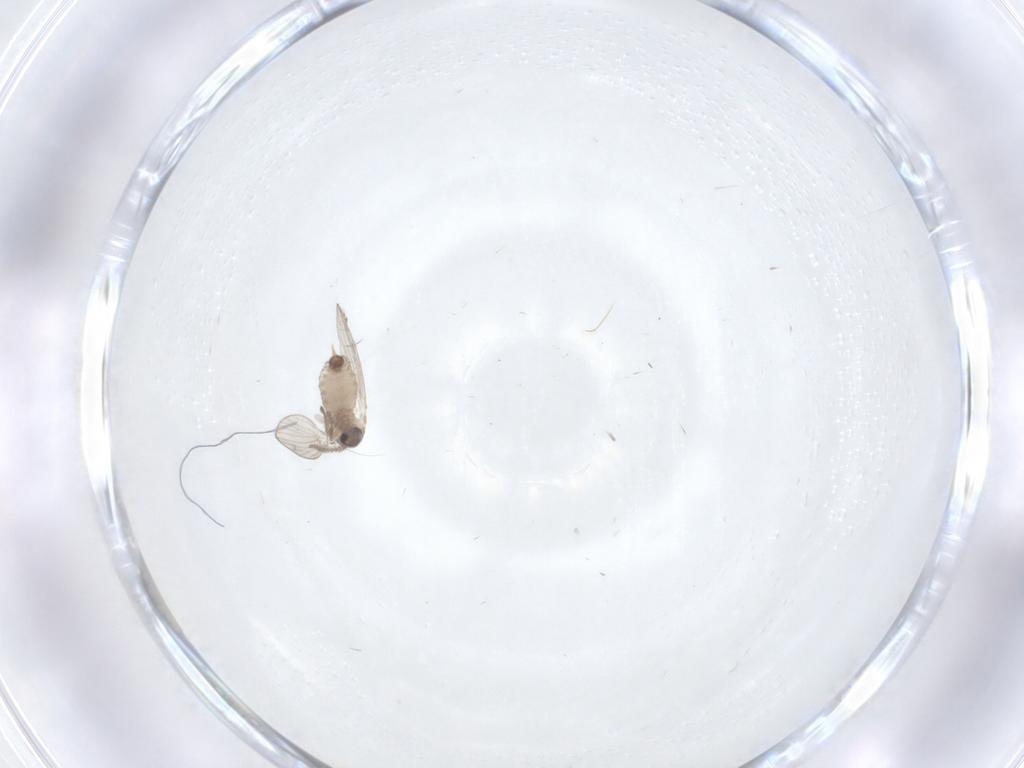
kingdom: Animalia
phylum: Arthropoda
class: Insecta
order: Diptera
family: Psychodidae
